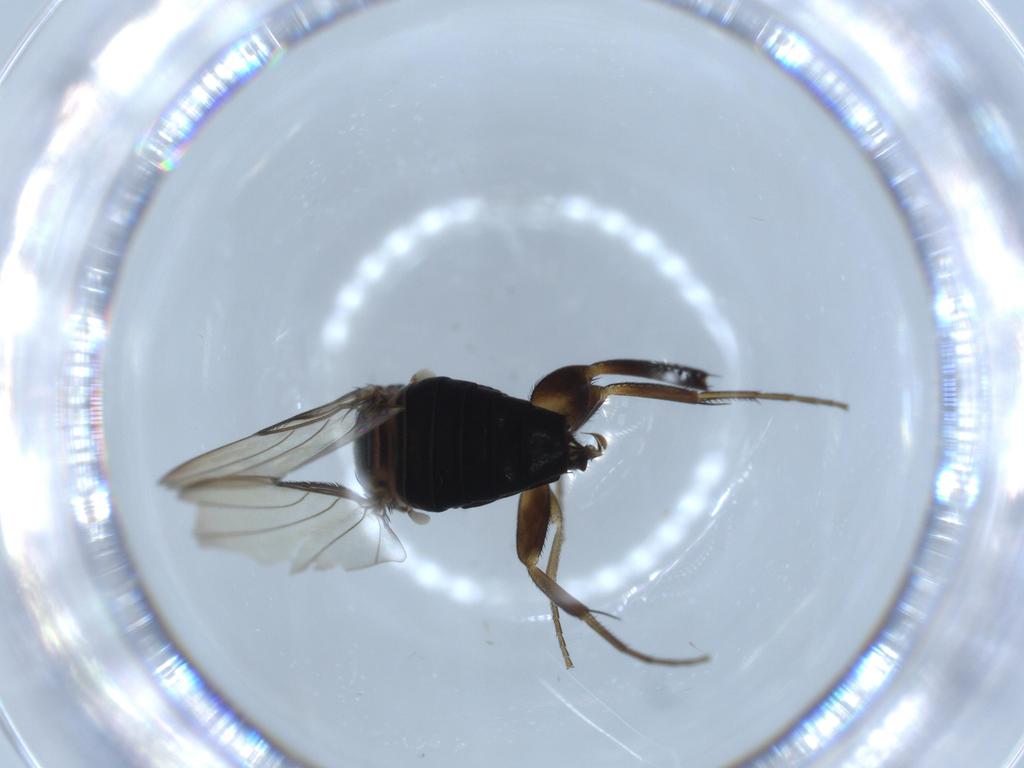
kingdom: Animalia
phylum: Arthropoda
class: Insecta
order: Diptera
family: Phoridae
